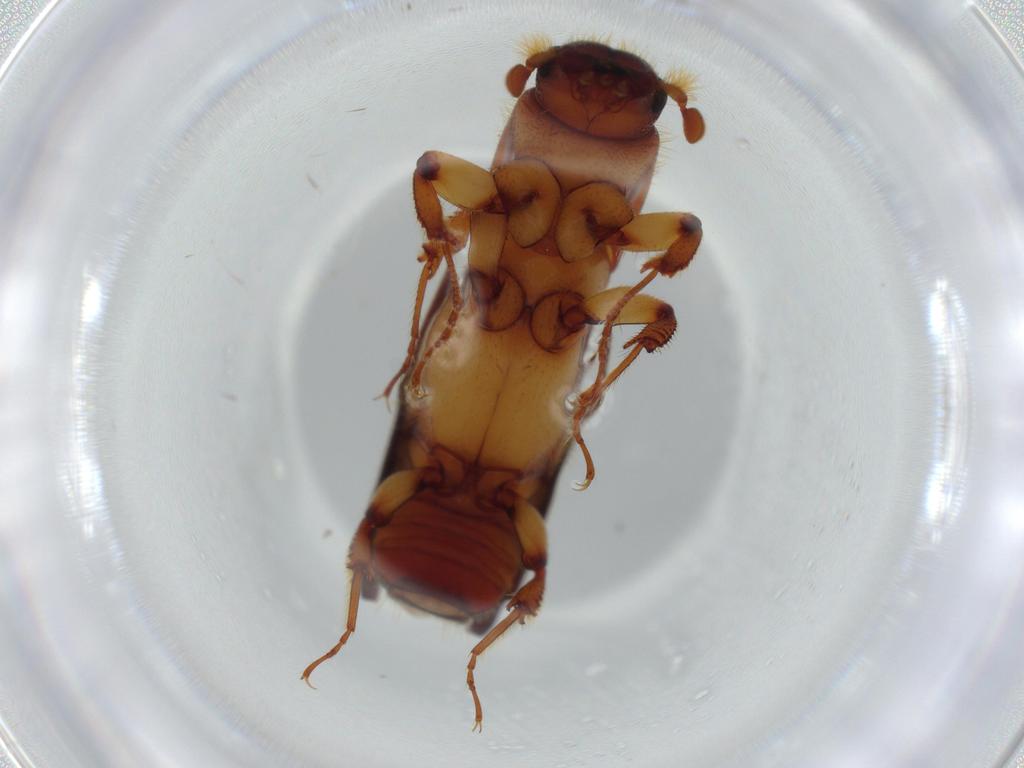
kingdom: Animalia
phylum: Arthropoda
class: Insecta
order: Coleoptera
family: Curculionidae
